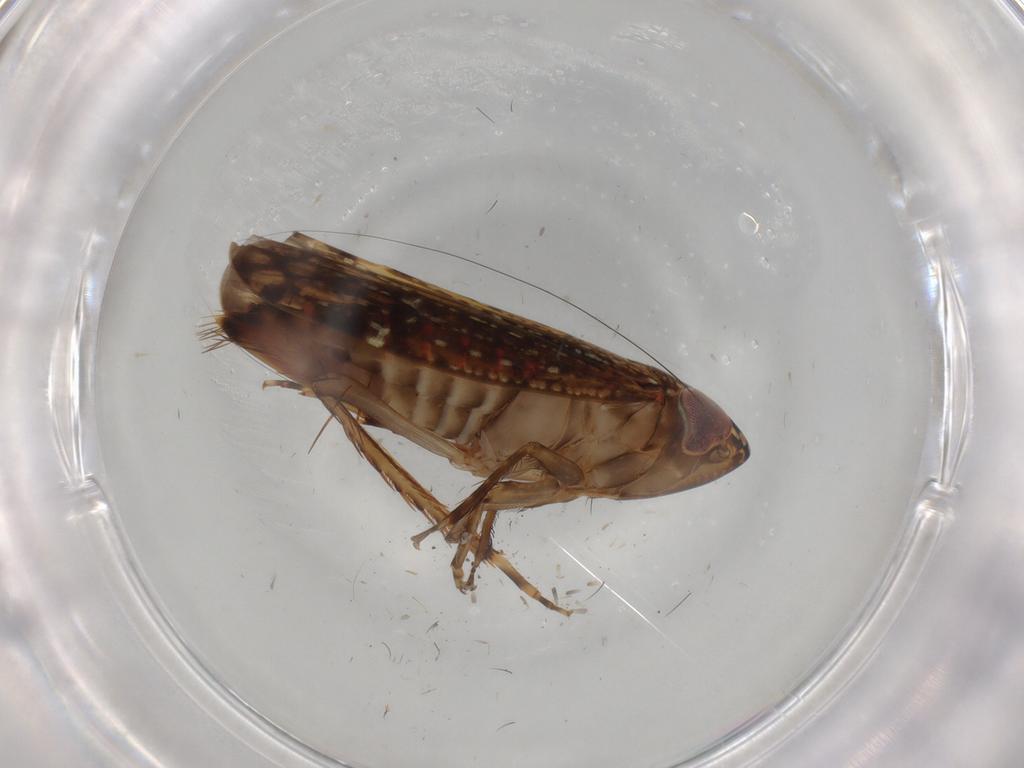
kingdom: Animalia
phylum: Arthropoda
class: Insecta
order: Hemiptera
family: Cicadellidae
